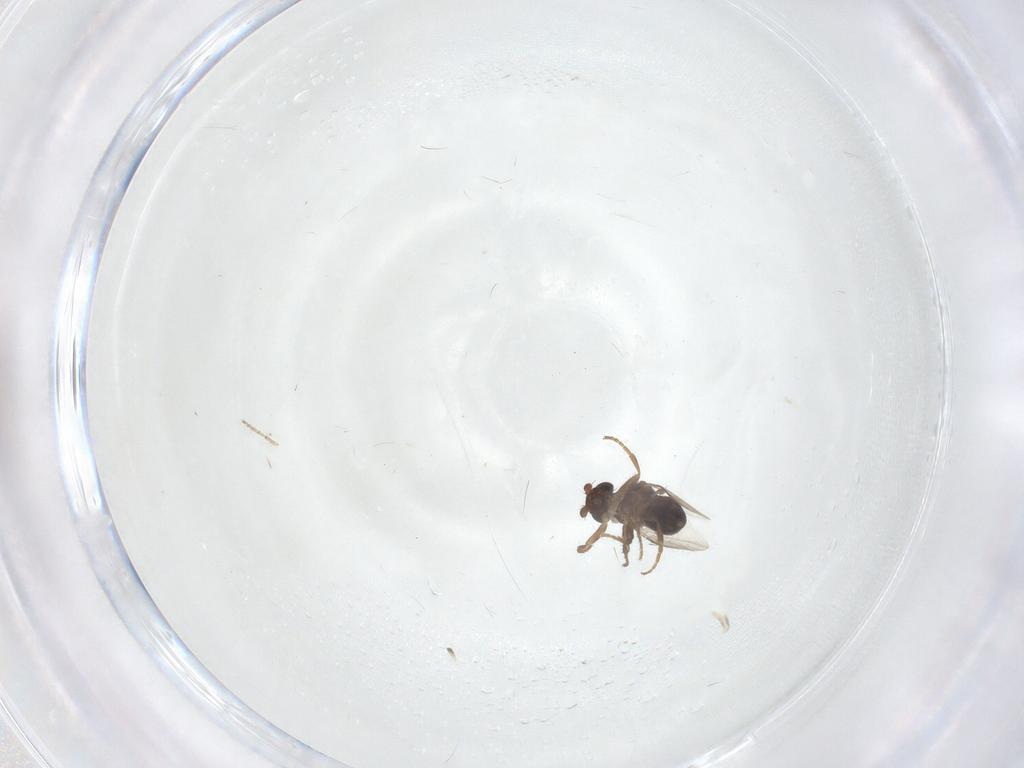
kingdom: Animalia
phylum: Arthropoda
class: Insecta
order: Diptera
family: Sphaeroceridae
